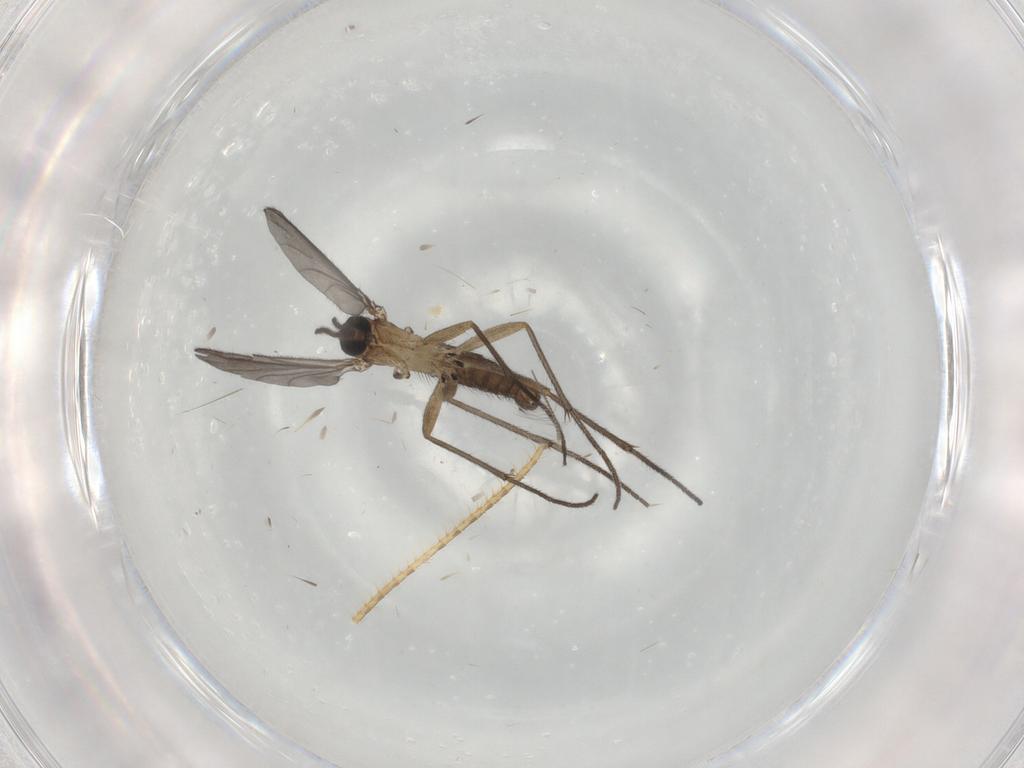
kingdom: Animalia
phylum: Arthropoda
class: Insecta
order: Diptera
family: Chironomidae
